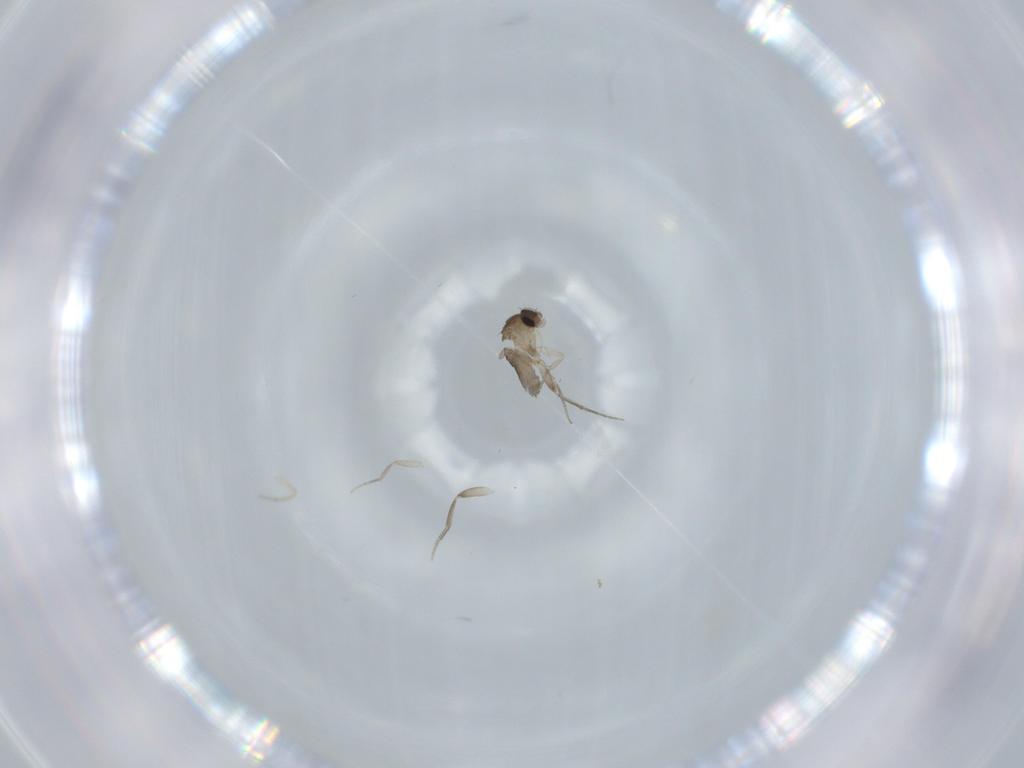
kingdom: Animalia
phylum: Arthropoda
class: Insecta
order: Diptera
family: Phoridae
